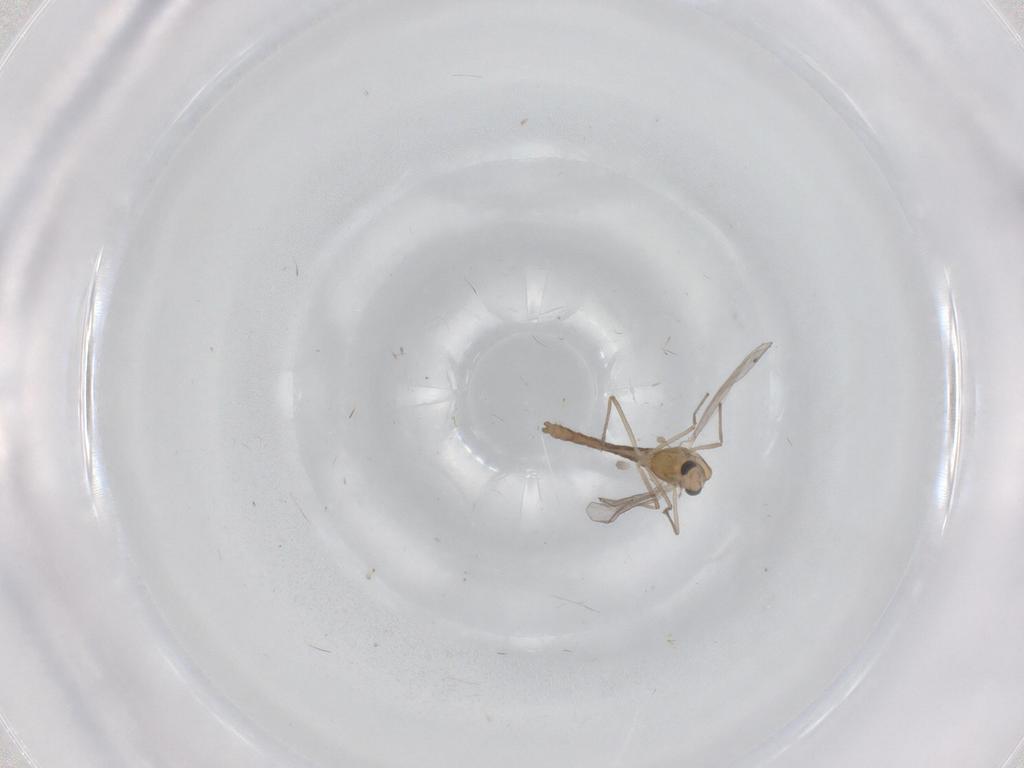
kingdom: Animalia
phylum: Arthropoda
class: Insecta
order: Diptera
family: Chironomidae
